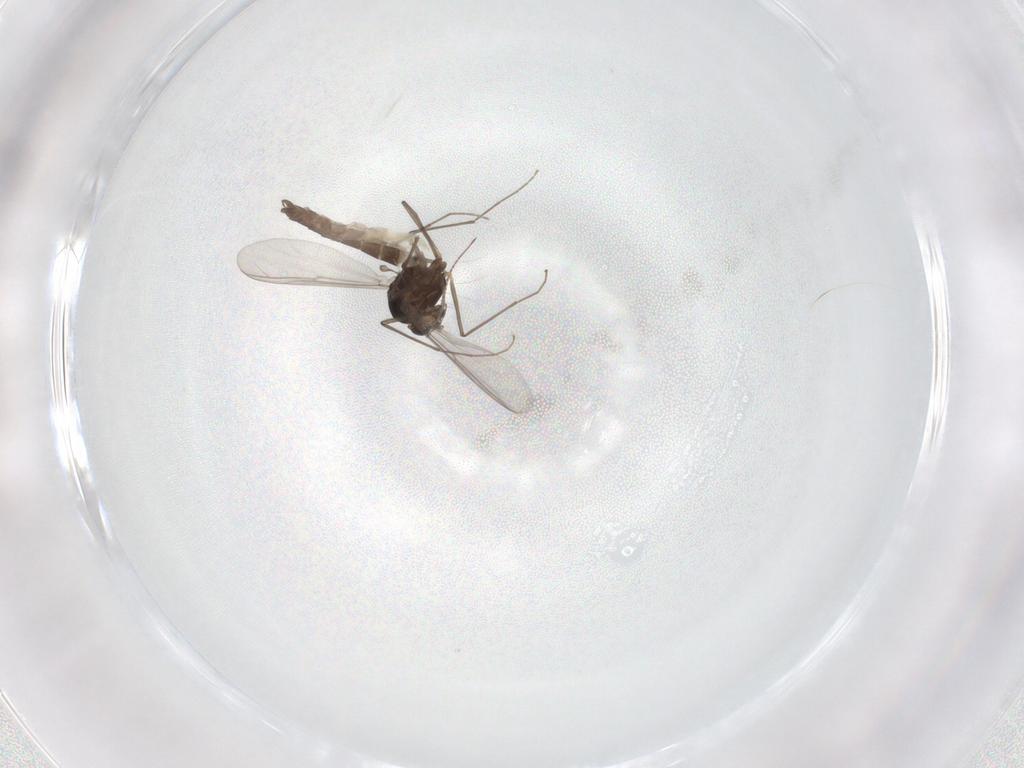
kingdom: Animalia
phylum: Arthropoda
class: Insecta
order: Diptera
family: Chironomidae
